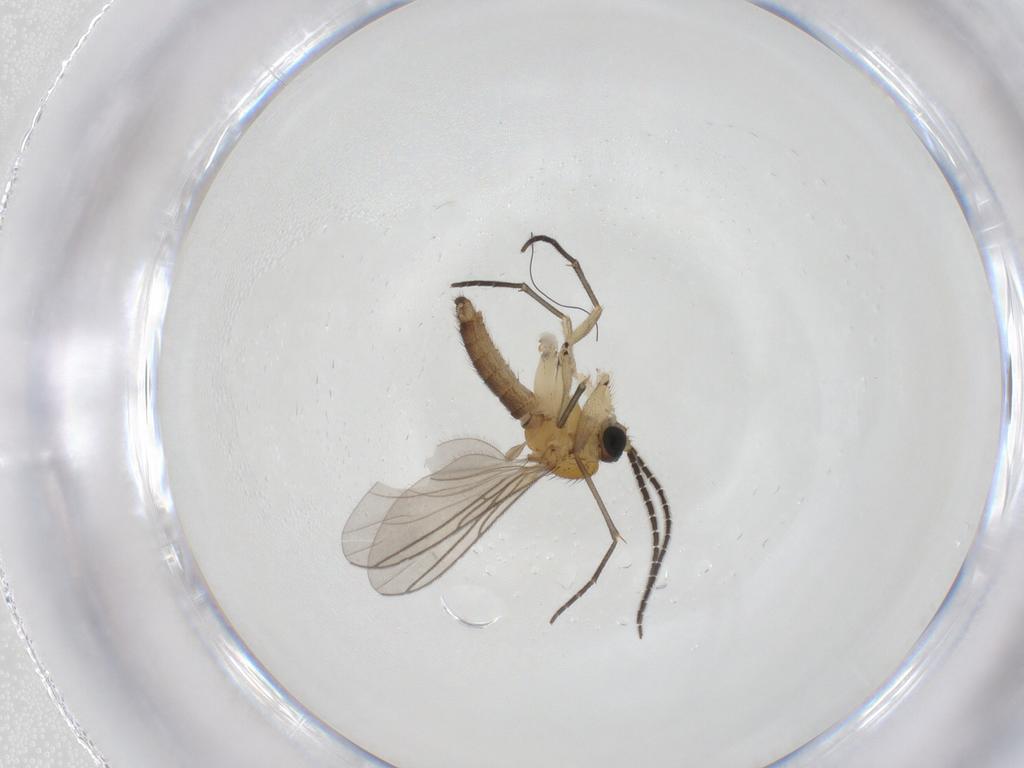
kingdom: Animalia
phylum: Arthropoda
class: Insecta
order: Diptera
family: Sciaridae
